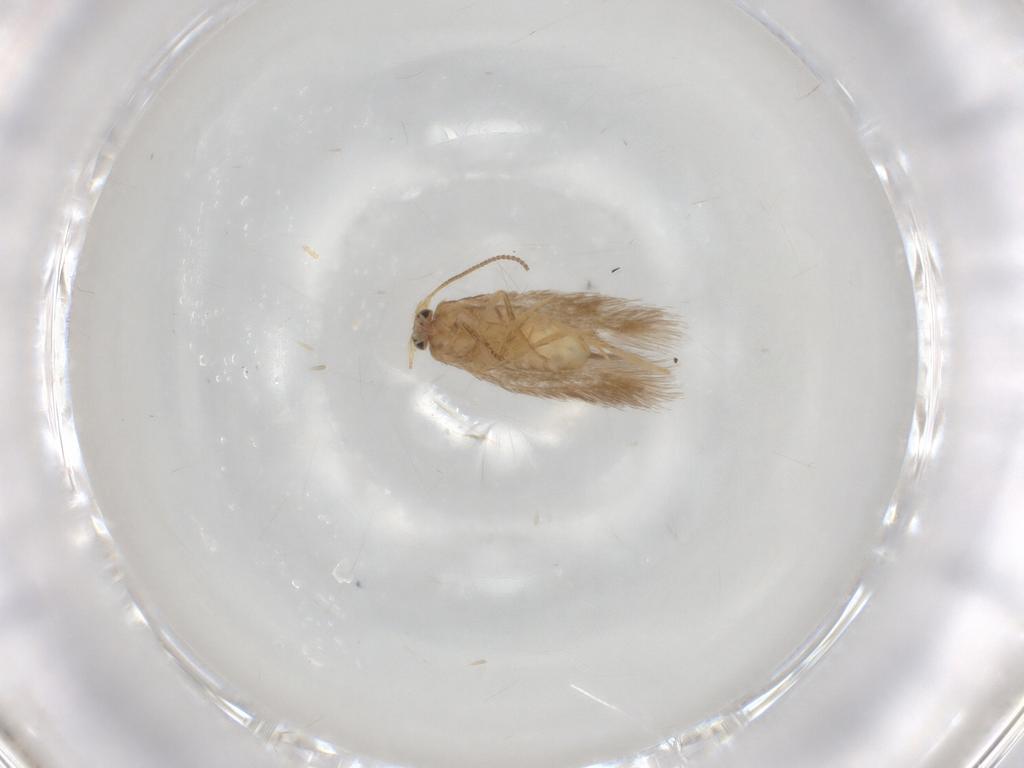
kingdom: Animalia
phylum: Arthropoda
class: Insecta
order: Lepidoptera
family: Nepticulidae
